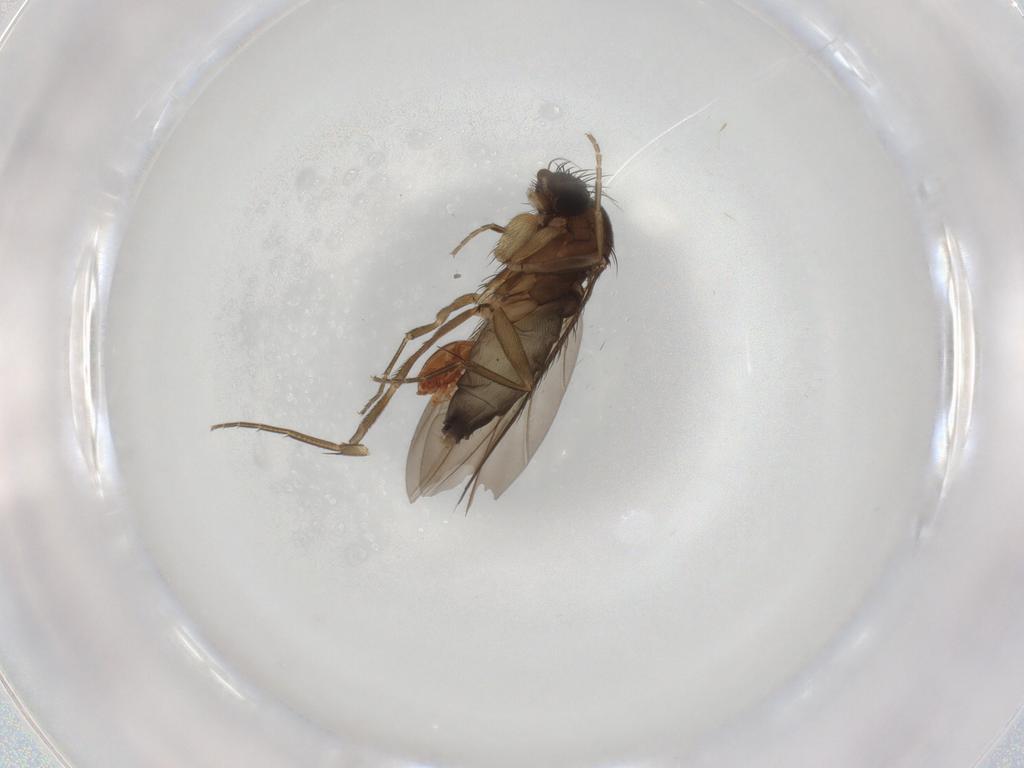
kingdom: Animalia
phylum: Arthropoda
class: Insecta
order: Diptera
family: Phoridae
